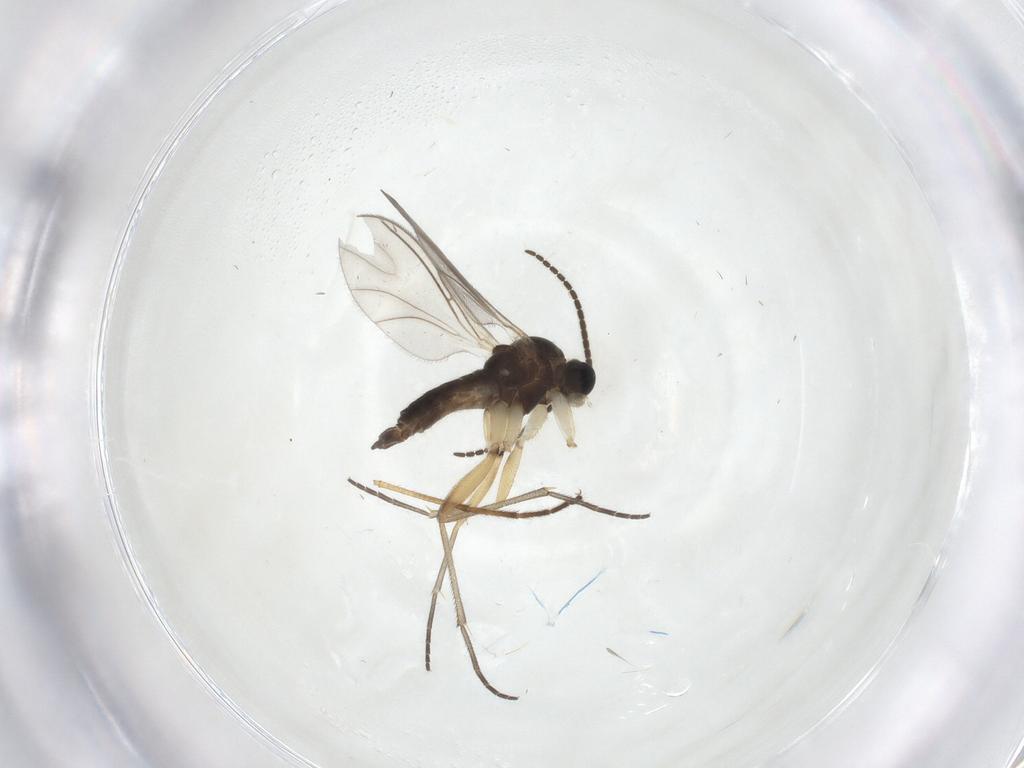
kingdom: Animalia
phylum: Arthropoda
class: Insecta
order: Diptera
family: Sciaridae
